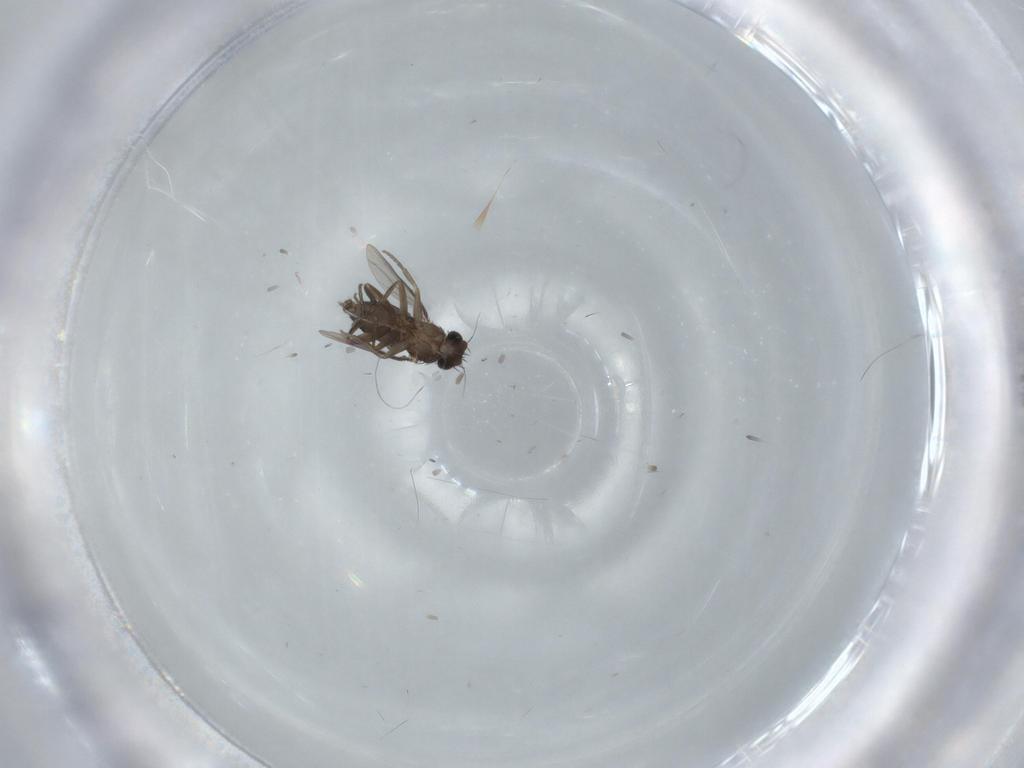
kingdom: Animalia
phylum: Arthropoda
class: Insecta
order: Diptera
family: Phoridae
